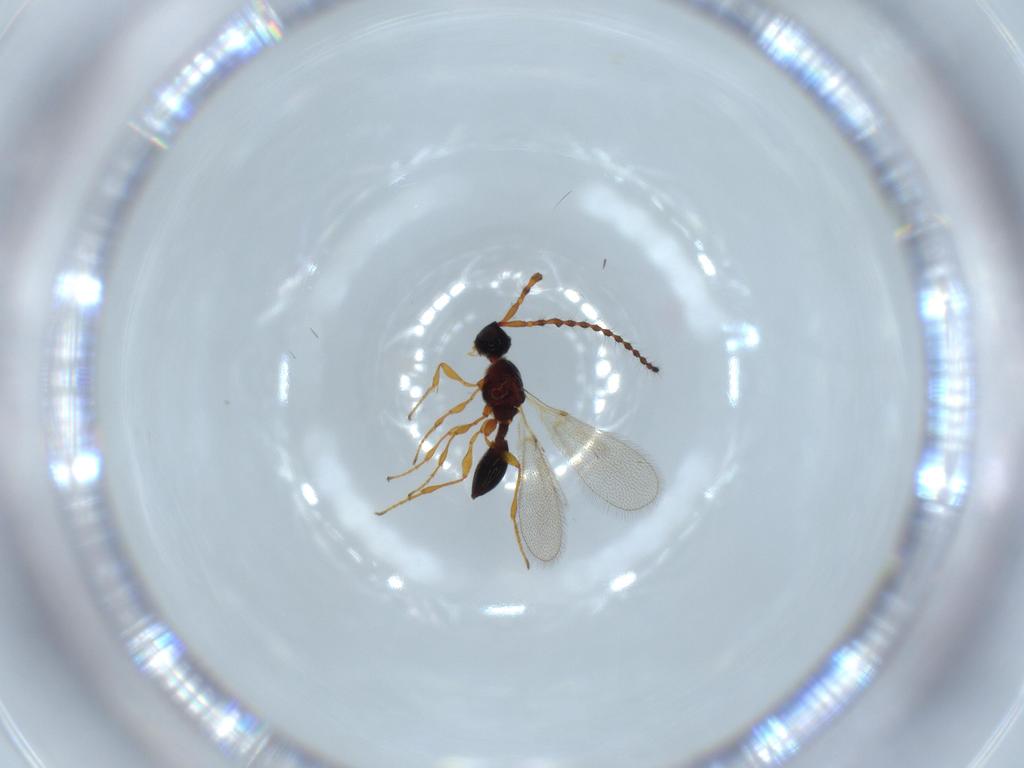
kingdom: Animalia
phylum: Arthropoda
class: Insecta
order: Hymenoptera
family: Diapriidae
